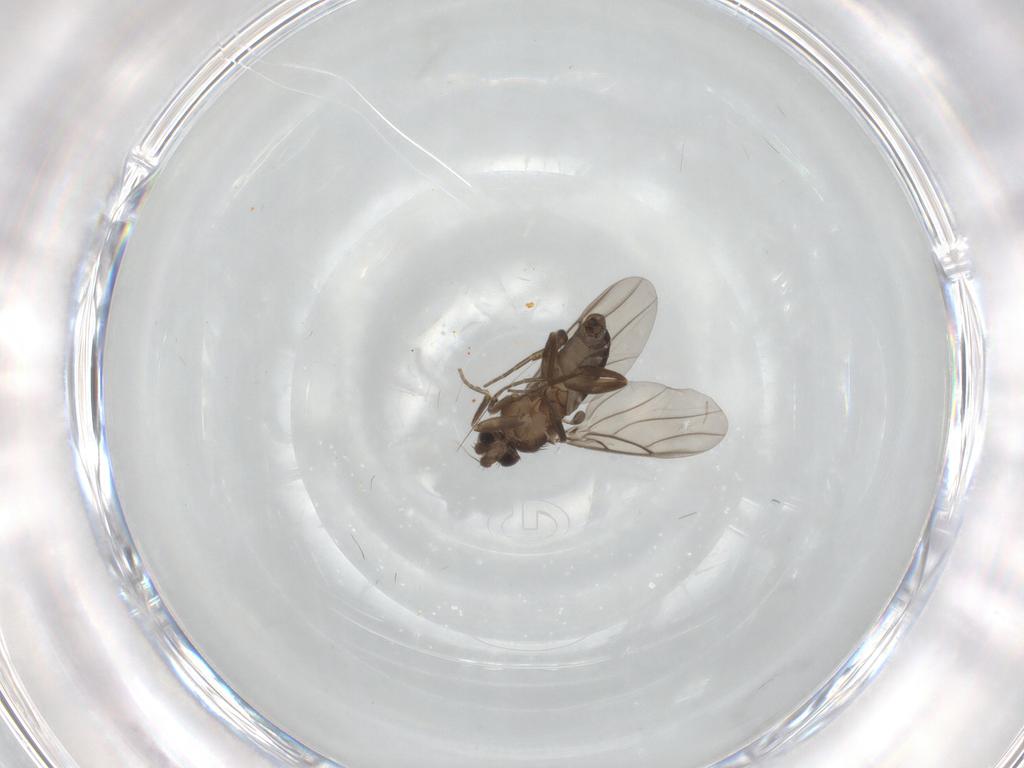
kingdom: Animalia
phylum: Arthropoda
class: Insecta
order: Diptera
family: Phoridae
